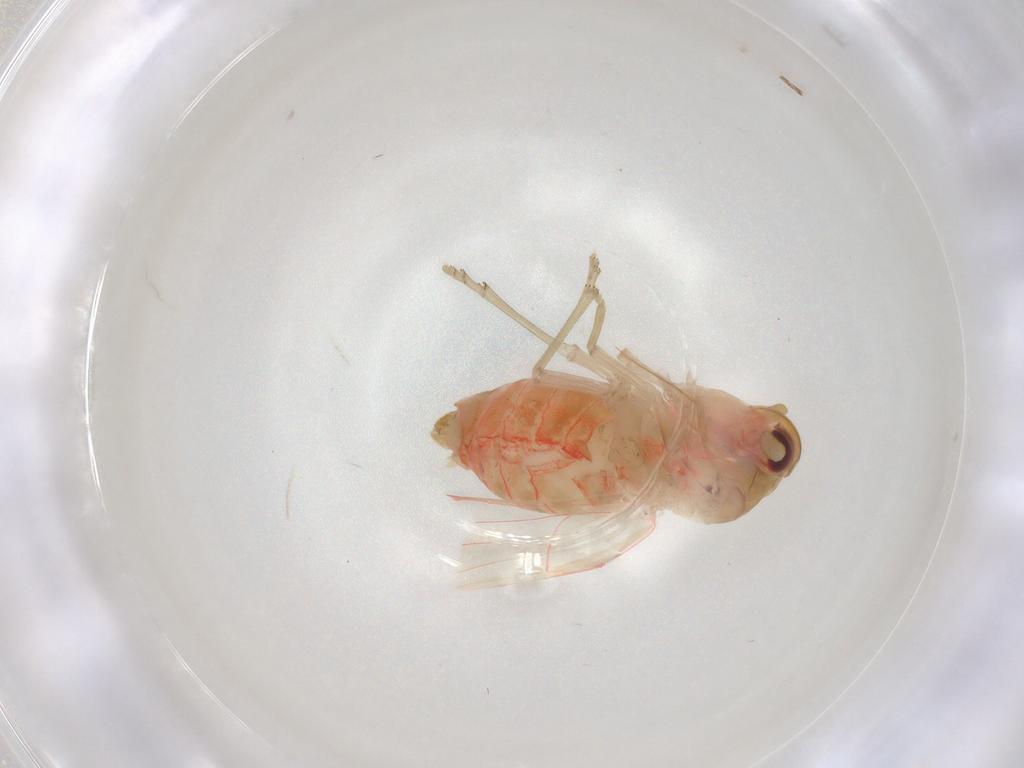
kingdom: Animalia
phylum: Arthropoda
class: Insecta
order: Hemiptera
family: Derbidae
